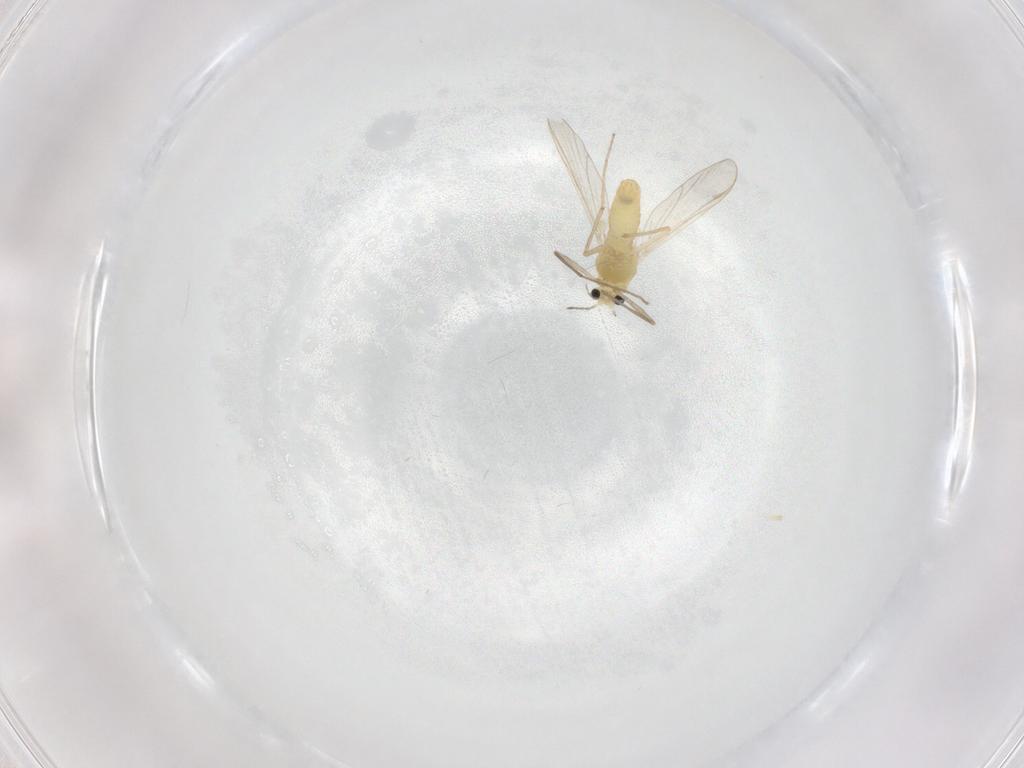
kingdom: Animalia
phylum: Arthropoda
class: Insecta
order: Diptera
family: Chironomidae
